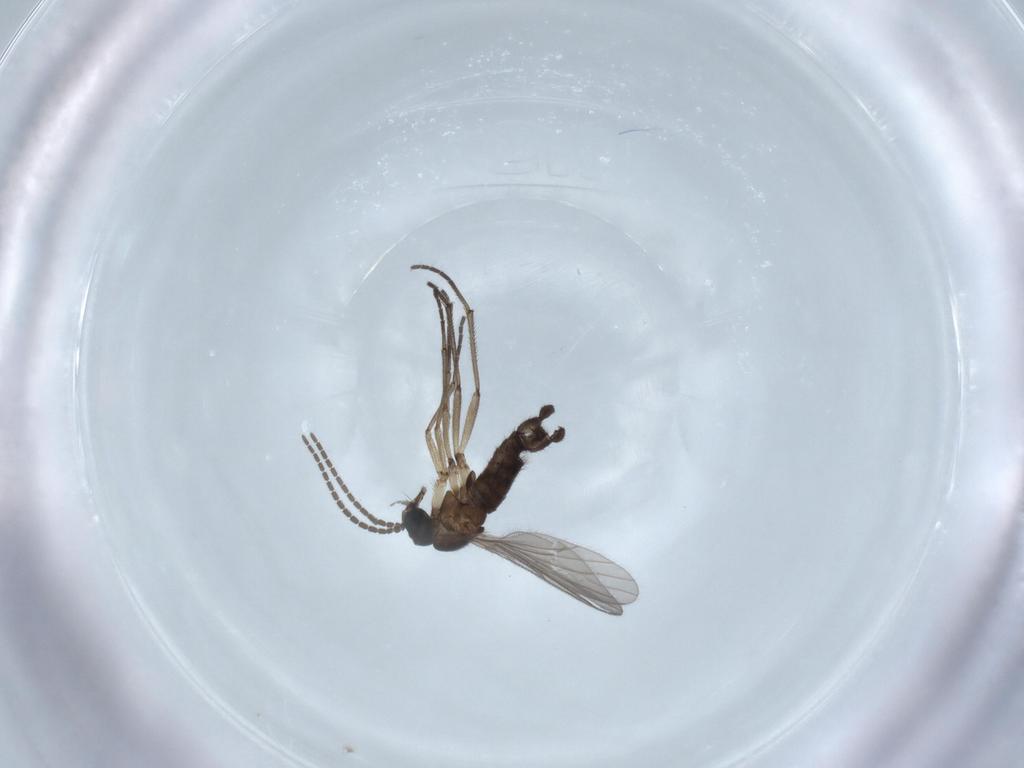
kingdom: Animalia
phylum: Arthropoda
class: Insecta
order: Diptera
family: Sciaridae
